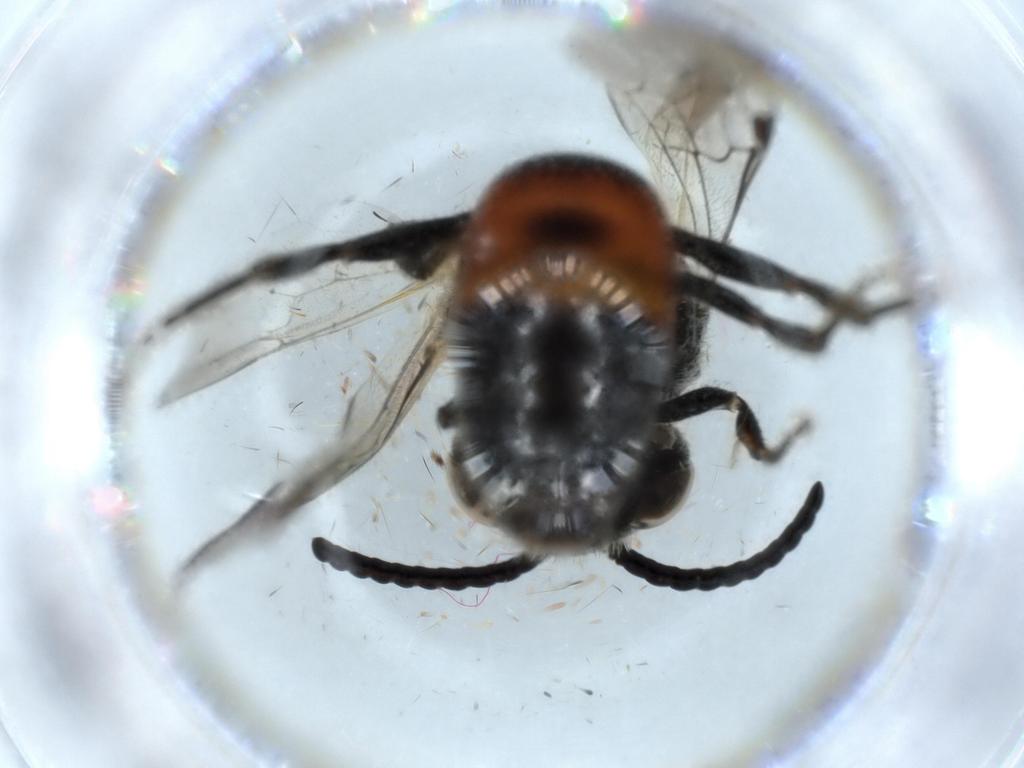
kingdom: Animalia
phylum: Arthropoda
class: Insecta
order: Hymenoptera
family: Halictidae
